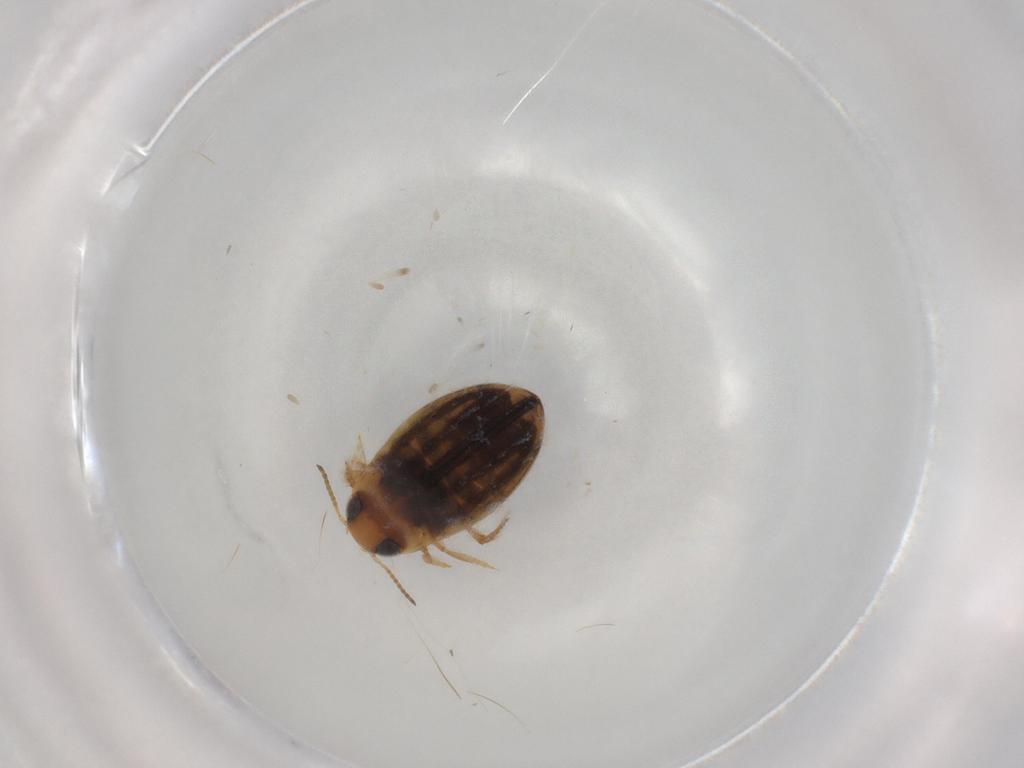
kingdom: Animalia
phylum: Arthropoda
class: Insecta
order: Coleoptera
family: Dytiscidae
